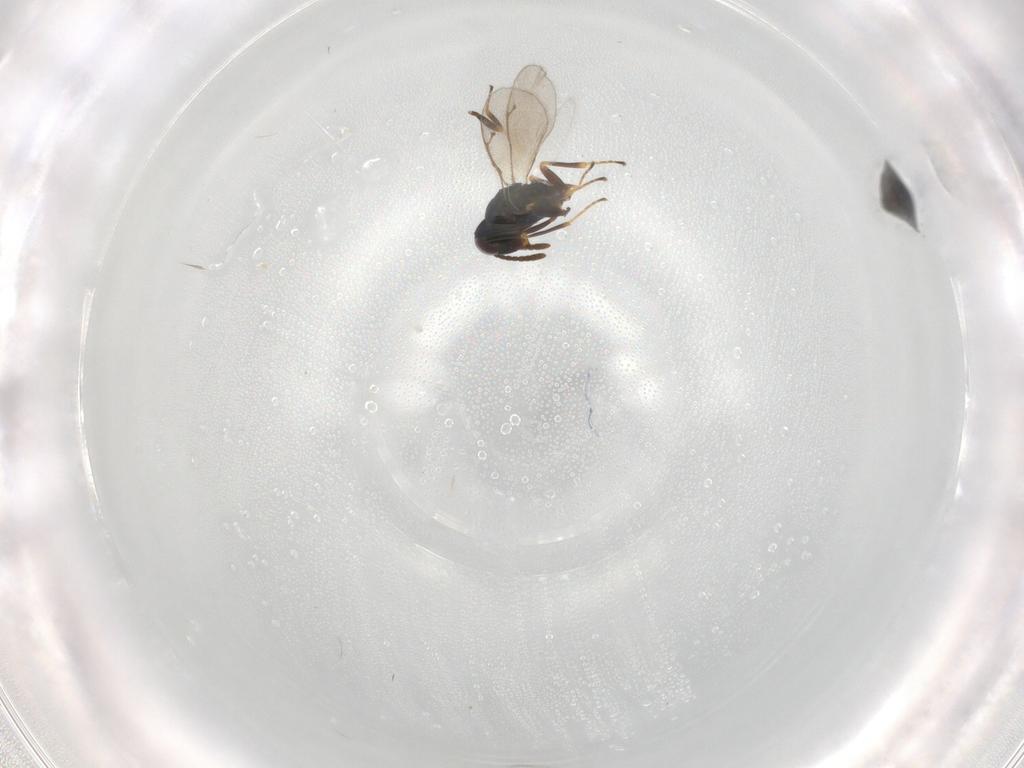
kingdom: Animalia
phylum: Arthropoda
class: Insecta
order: Hymenoptera
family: Pteromalidae
